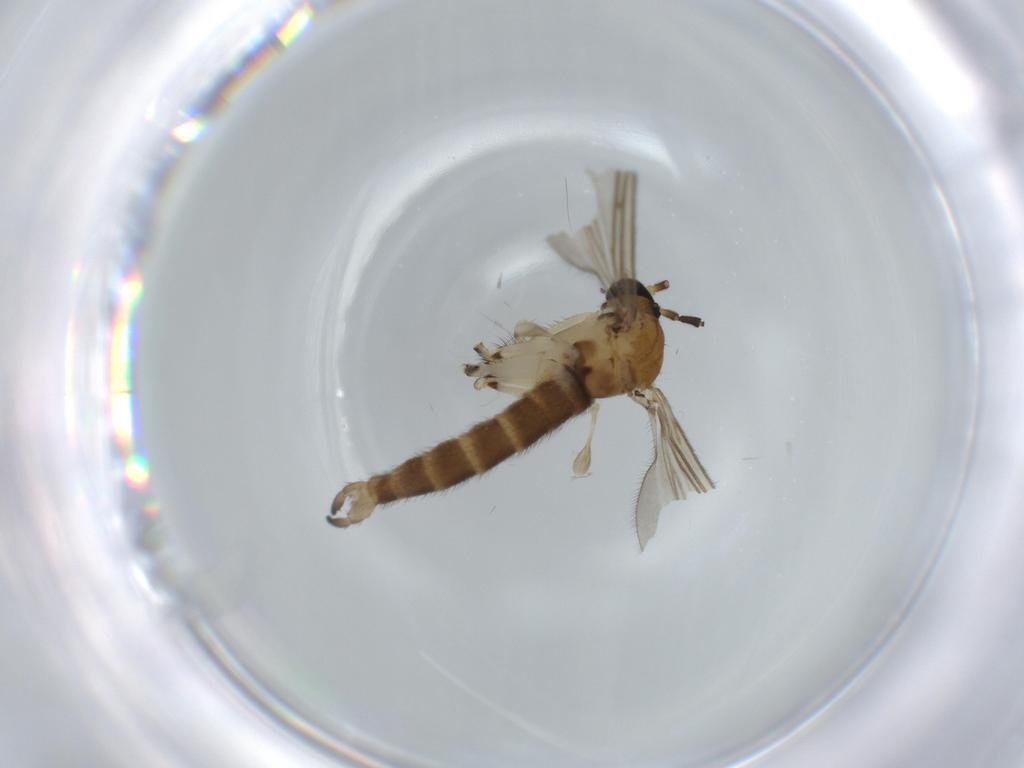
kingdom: Animalia
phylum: Arthropoda
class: Insecta
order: Diptera
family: Sciaridae
